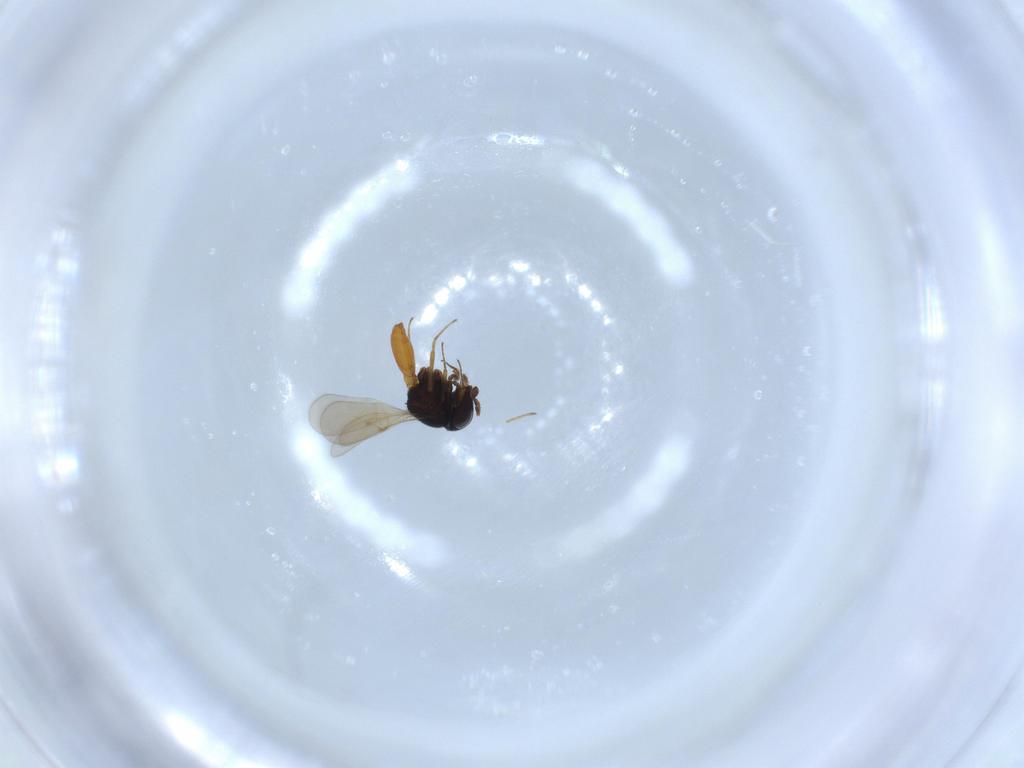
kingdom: Animalia
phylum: Arthropoda
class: Insecta
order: Hymenoptera
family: Scelionidae
